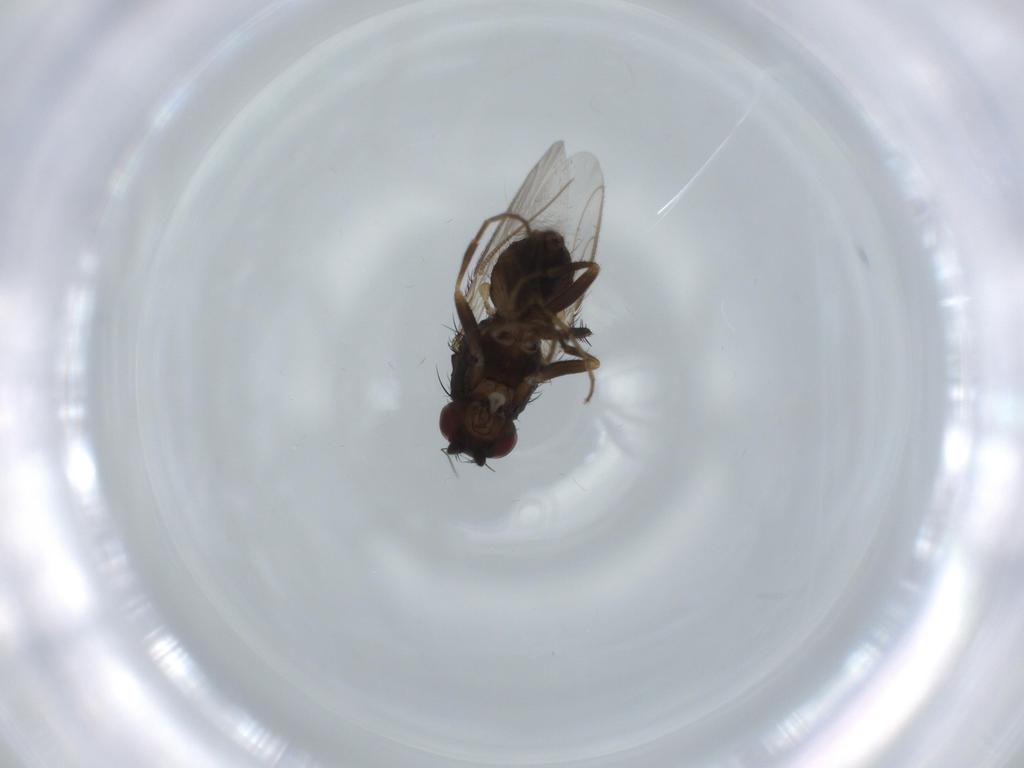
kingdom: Animalia
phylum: Arthropoda
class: Insecta
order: Diptera
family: Sphaeroceridae
